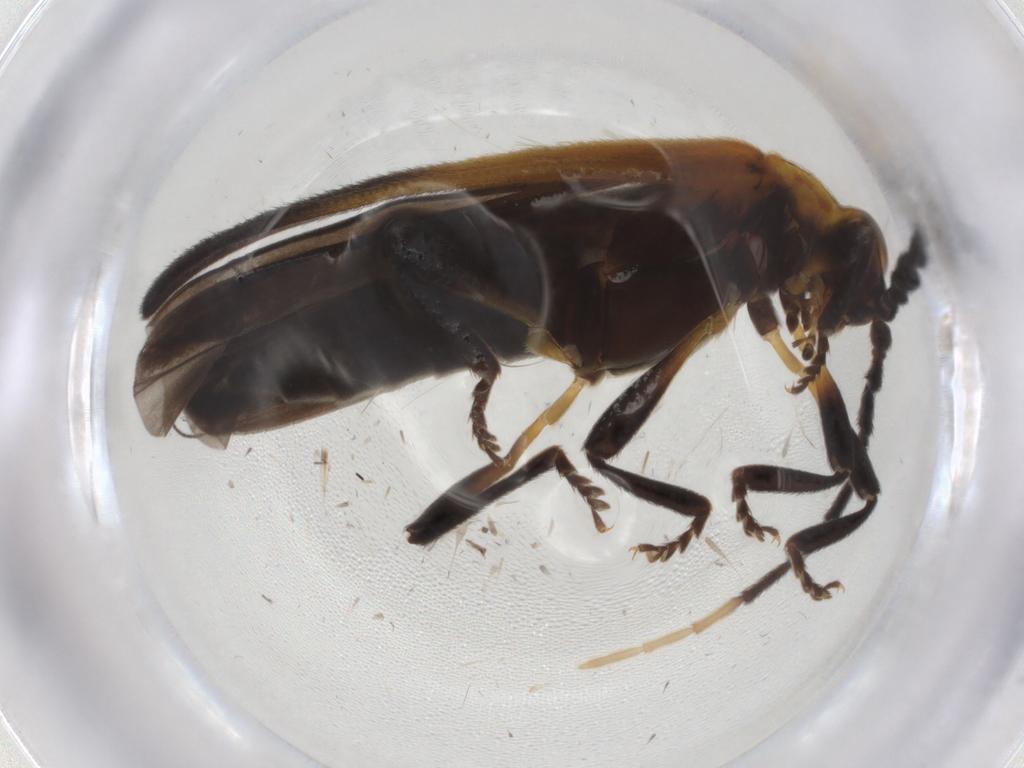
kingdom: Animalia
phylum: Arthropoda
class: Insecta
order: Coleoptera
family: Lycidae
